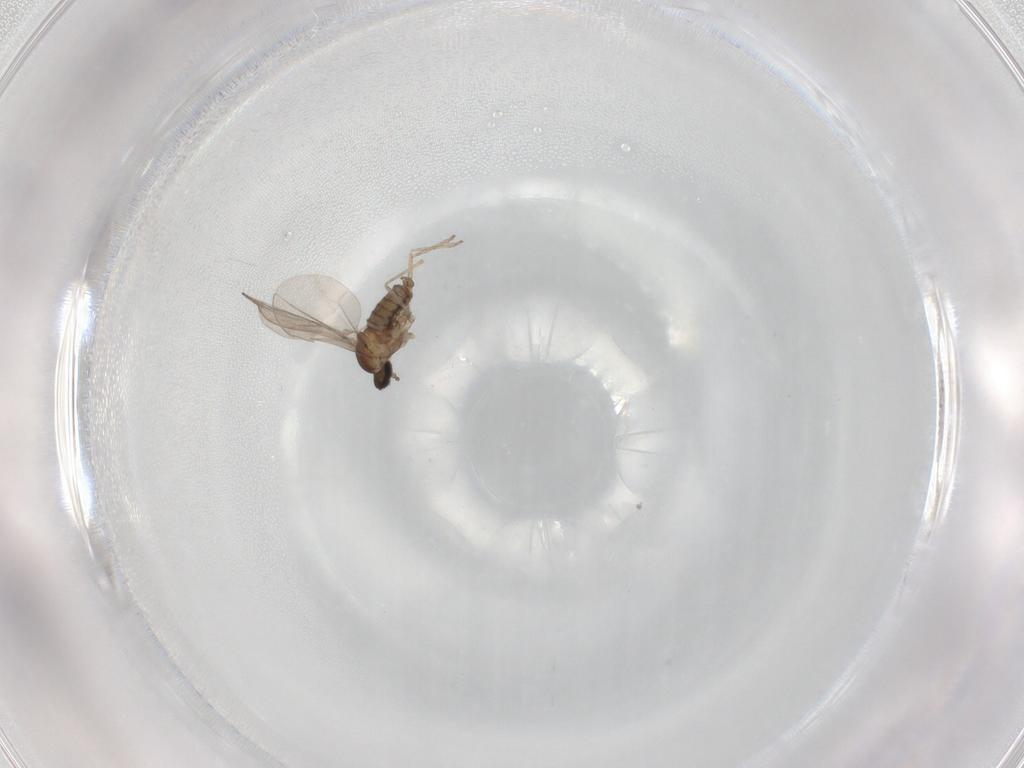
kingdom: Animalia
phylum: Arthropoda
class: Insecta
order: Diptera
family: Cecidomyiidae
